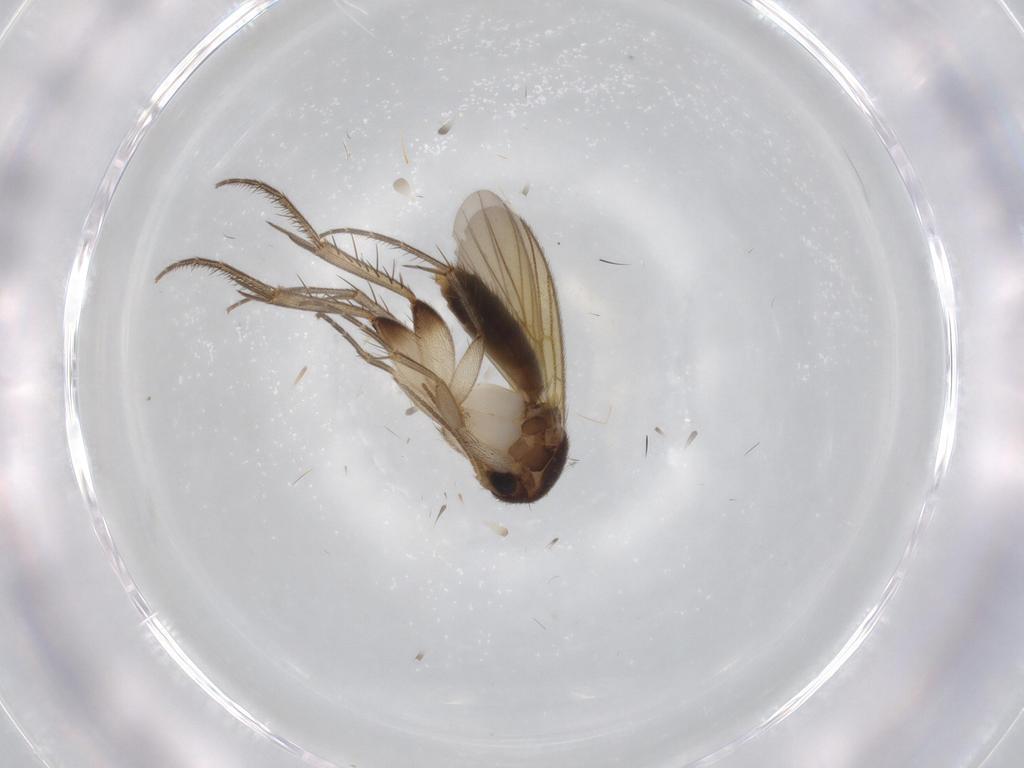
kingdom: Animalia
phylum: Arthropoda
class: Insecta
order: Diptera
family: Mycetophilidae
